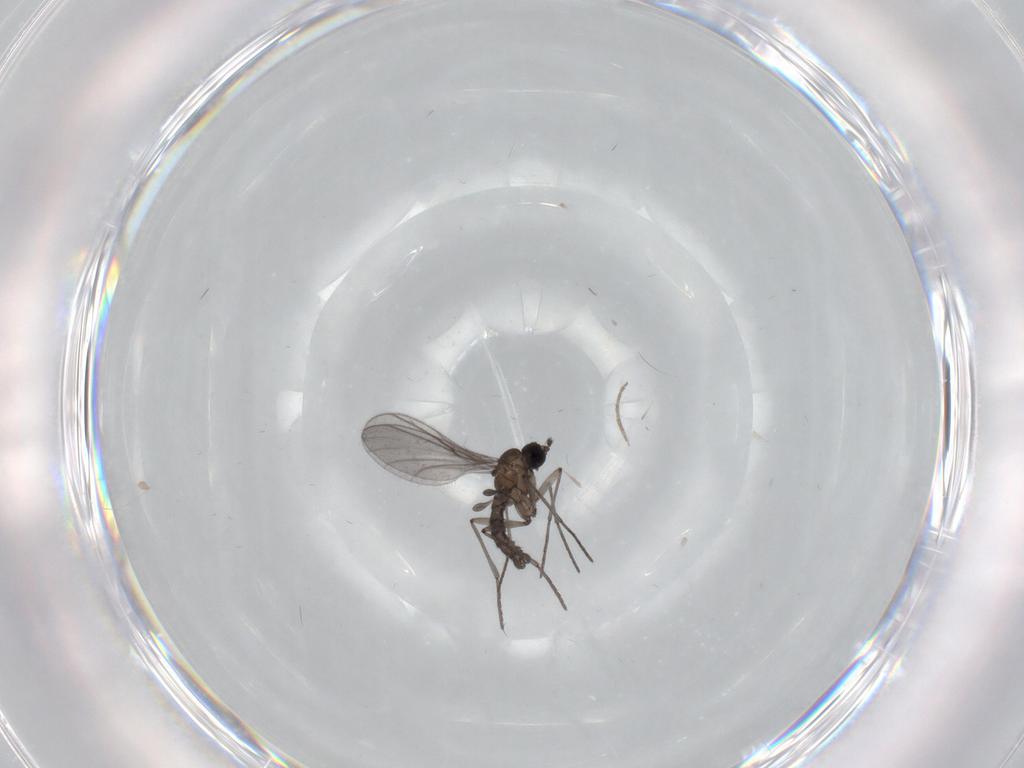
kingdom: Animalia
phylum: Arthropoda
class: Insecta
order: Diptera
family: Chironomidae
